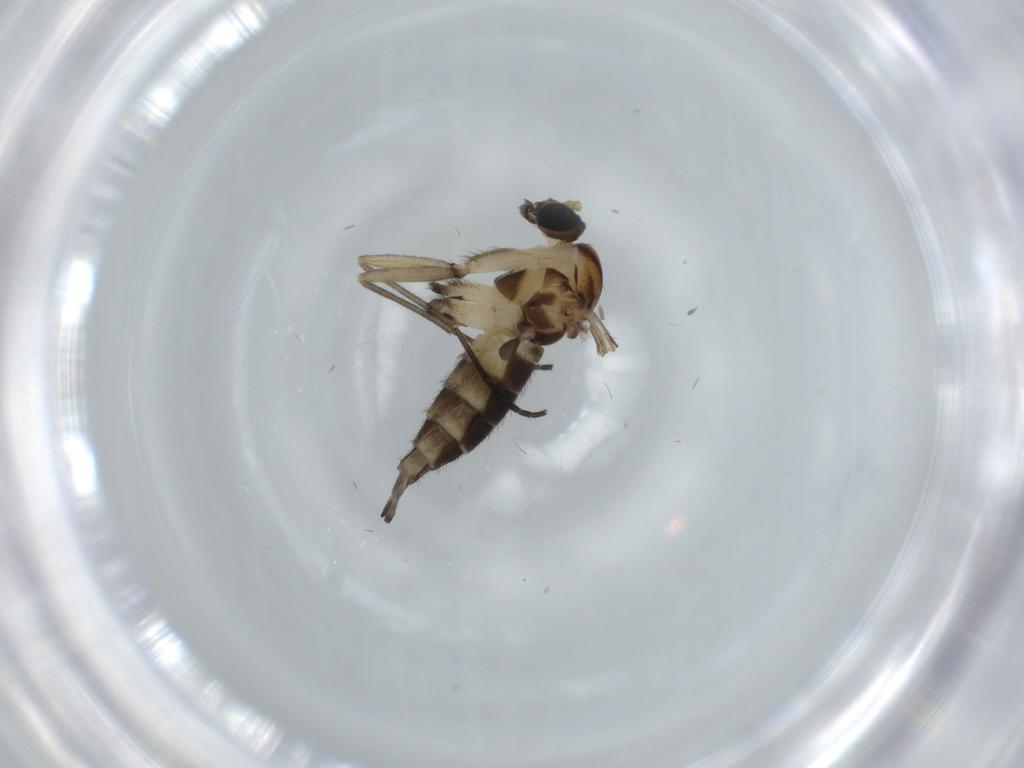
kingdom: Animalia
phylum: Arthropoda
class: Insecta
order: Diptera
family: Sciaridae
